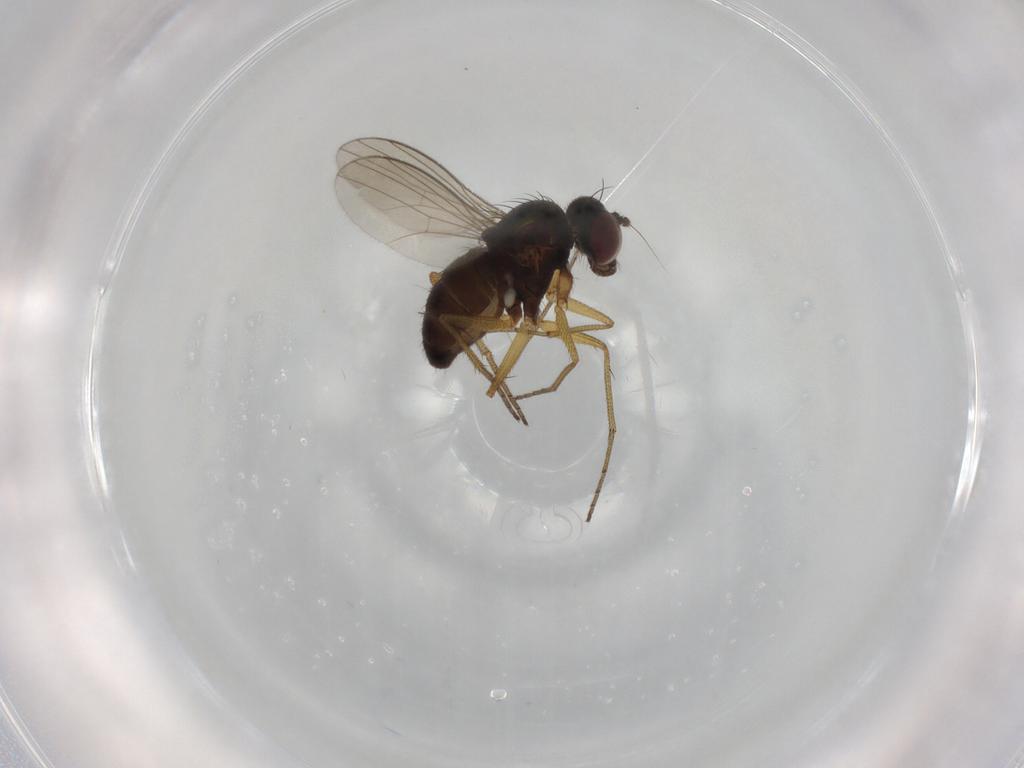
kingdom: Animalia
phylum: Arthropoda
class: Insecta
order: Diptera
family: Dolichopodidae
